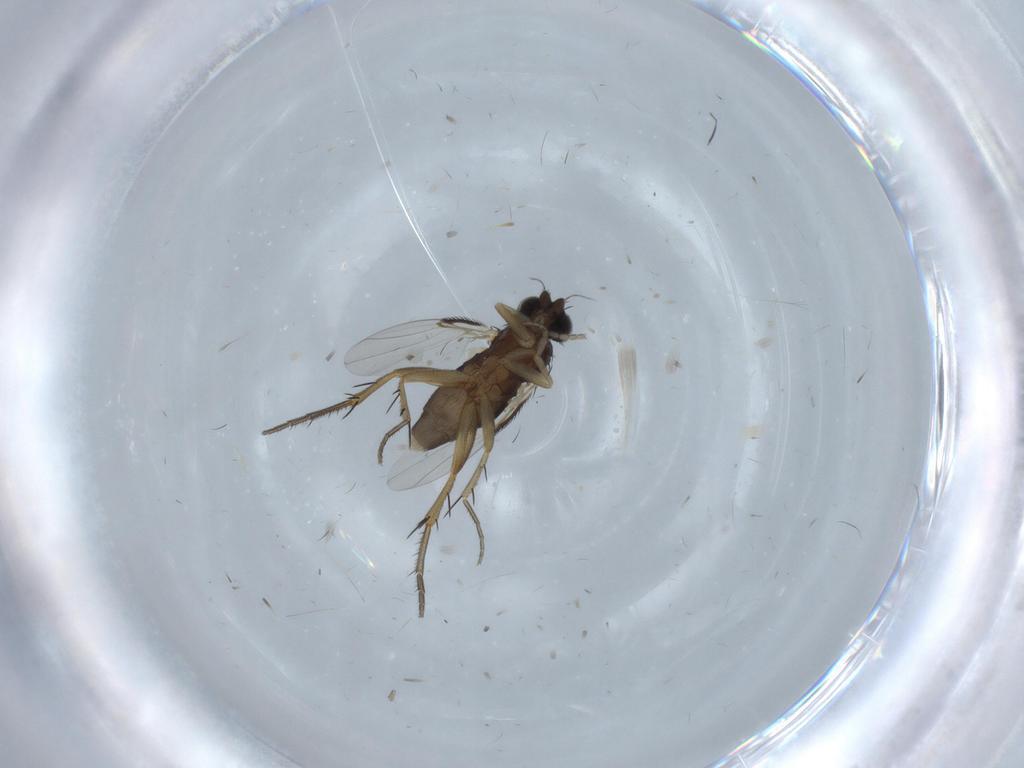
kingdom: Animalia
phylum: Arthropoda
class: Insecta
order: Diptera
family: Phoridae
